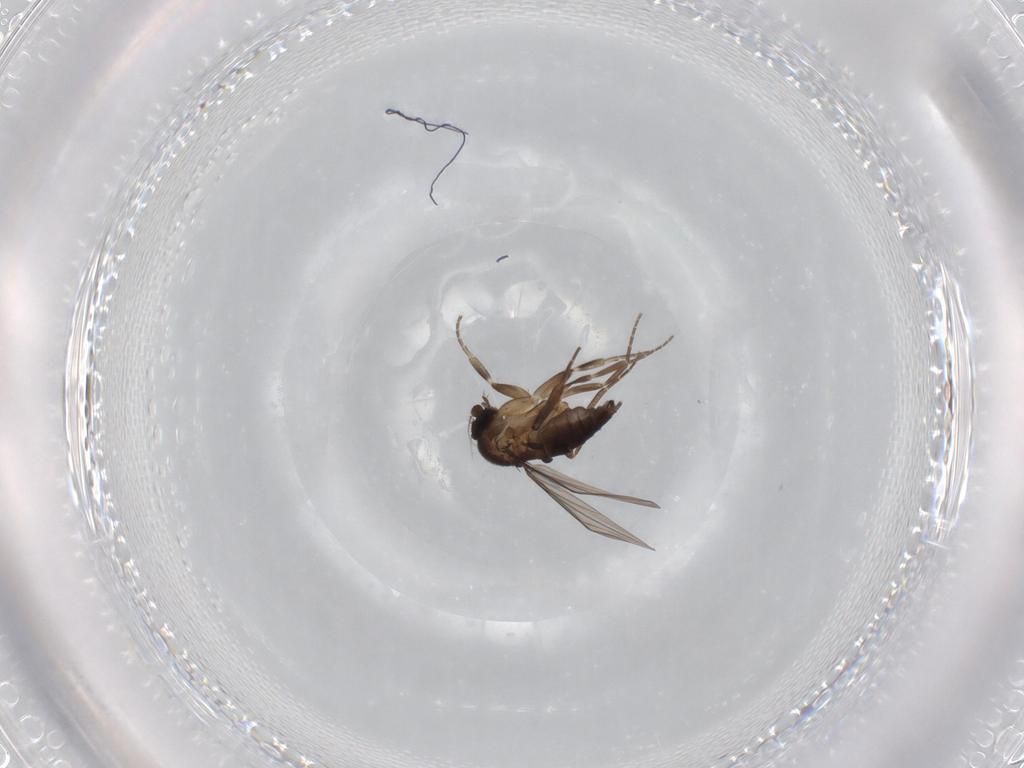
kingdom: Animalia
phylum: Arthropoda
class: Insecta
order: Diptera
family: Phoridae
